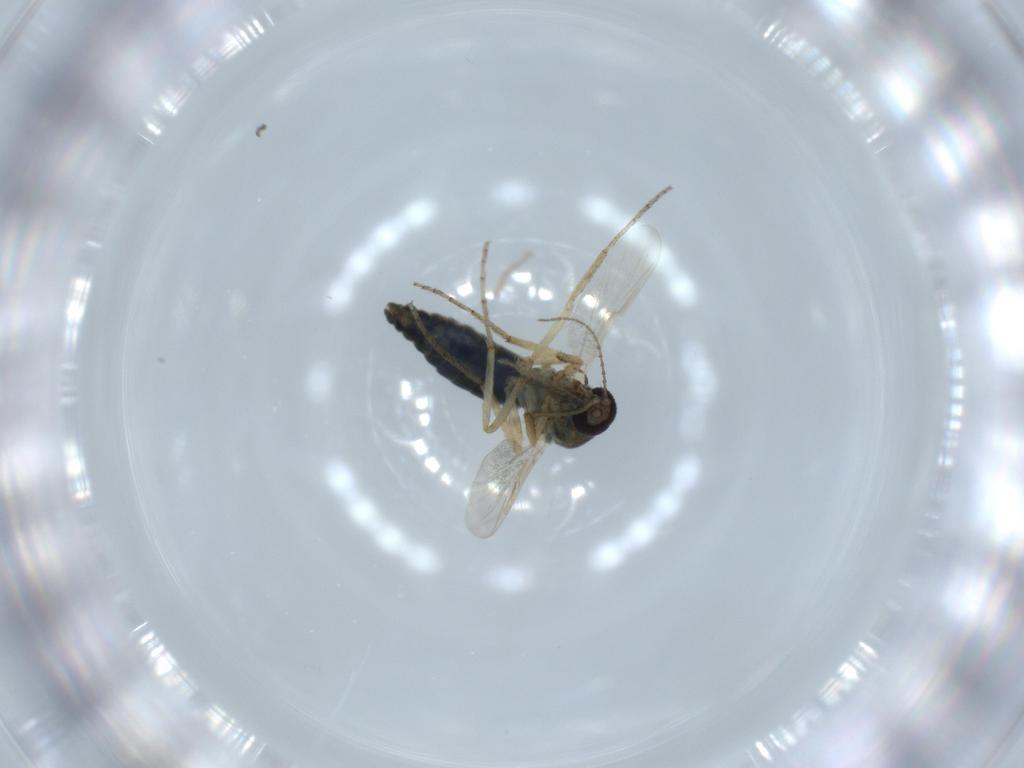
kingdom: Animalia
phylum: Arthropoda
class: Insecta
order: Diptera
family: Ceratopogonidae
